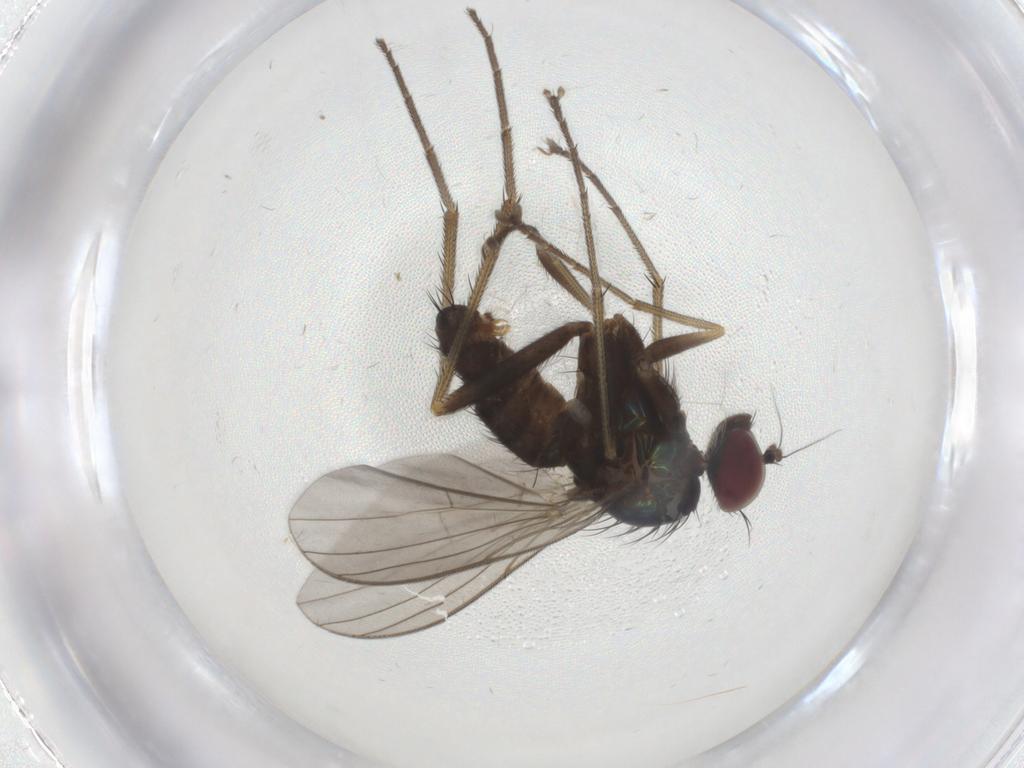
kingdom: Animalia
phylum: Arthropoda
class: Insecta
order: Diptera
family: Dolichopodidae
